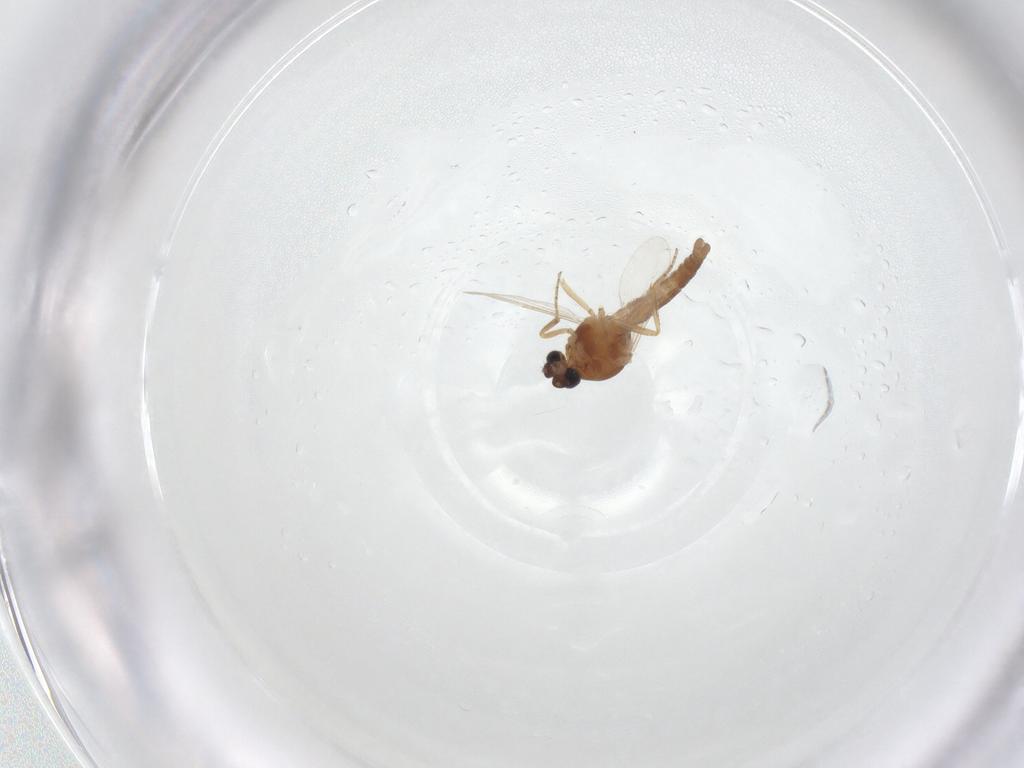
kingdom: Animalia
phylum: Arthropoda
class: Insecta
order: Diptera
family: Ceratopogonidae
